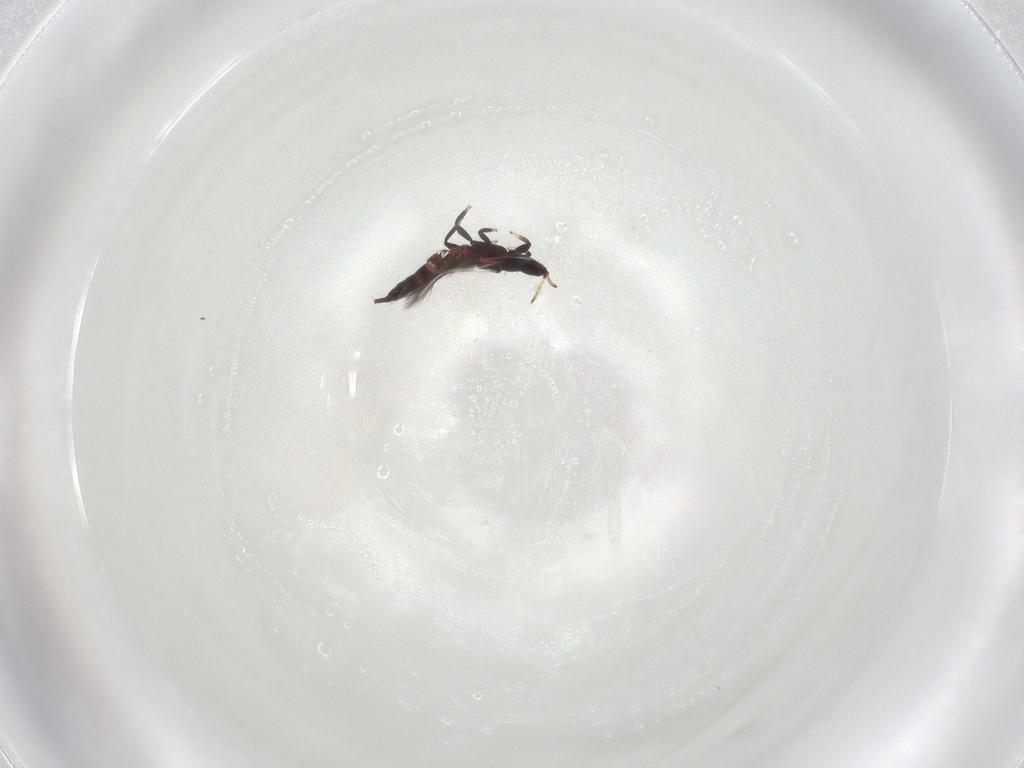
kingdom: Animalia
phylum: Arthropoda
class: Insecta
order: Thysanoptera
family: Phlaeothripidae
